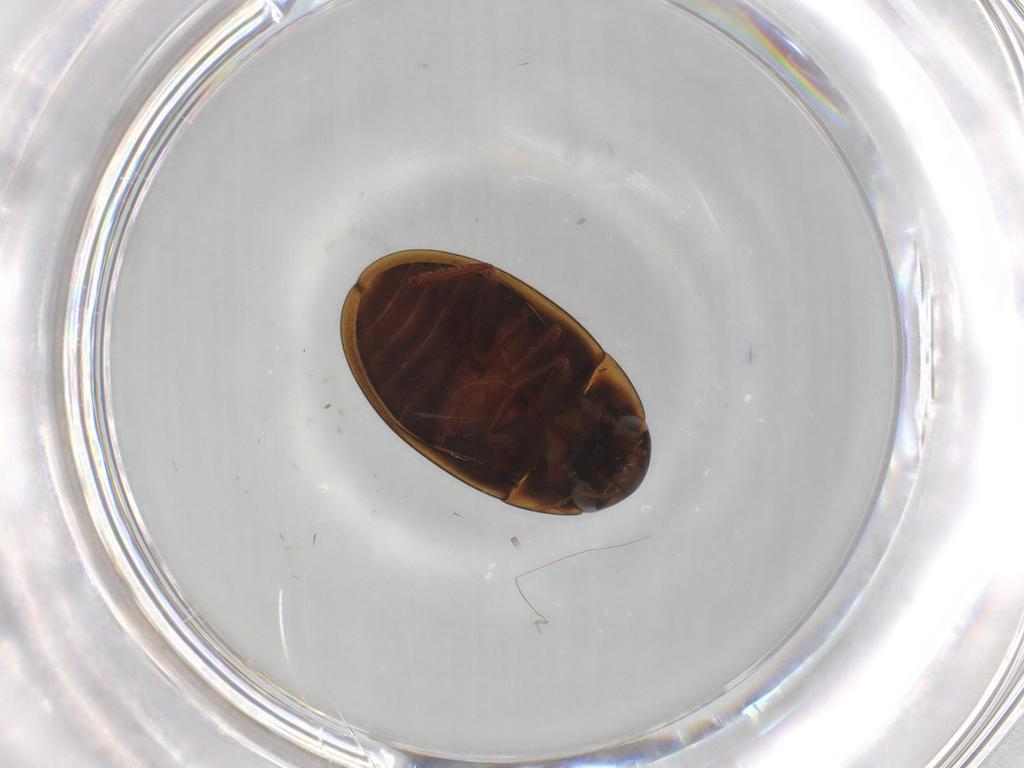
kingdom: Animalia
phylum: Arthropoda
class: Insecta
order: Coleoptera
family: Hydrophilidae
